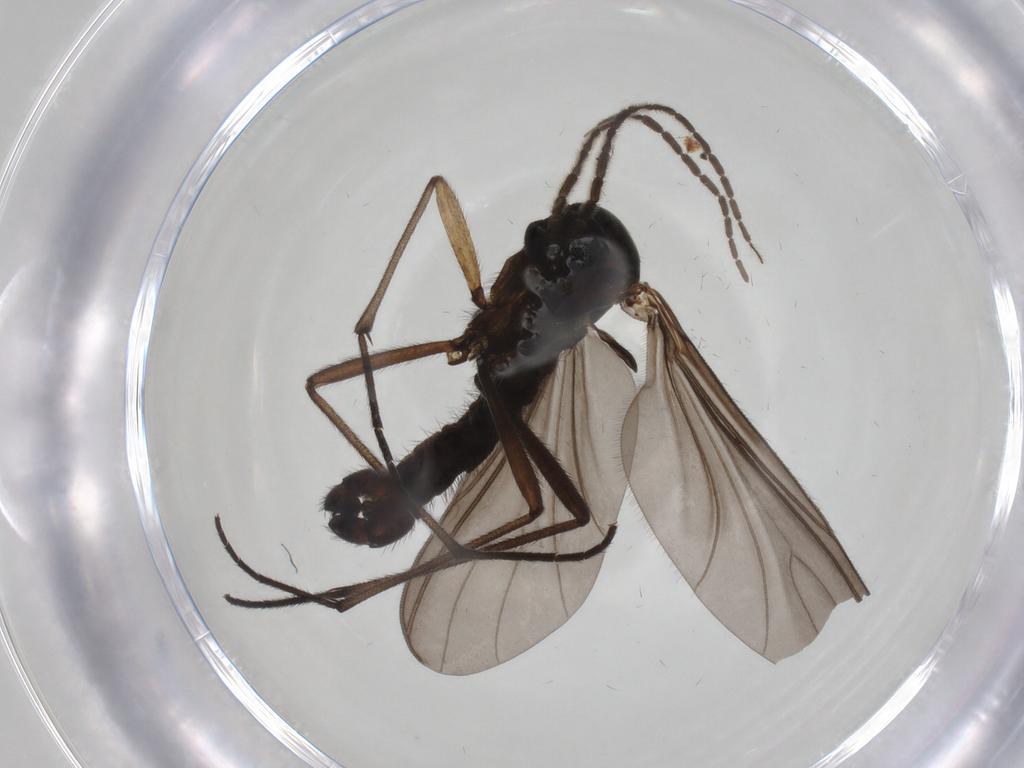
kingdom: Animalia
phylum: Arthropoda
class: Insecta
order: Diptera
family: Sciaridae
